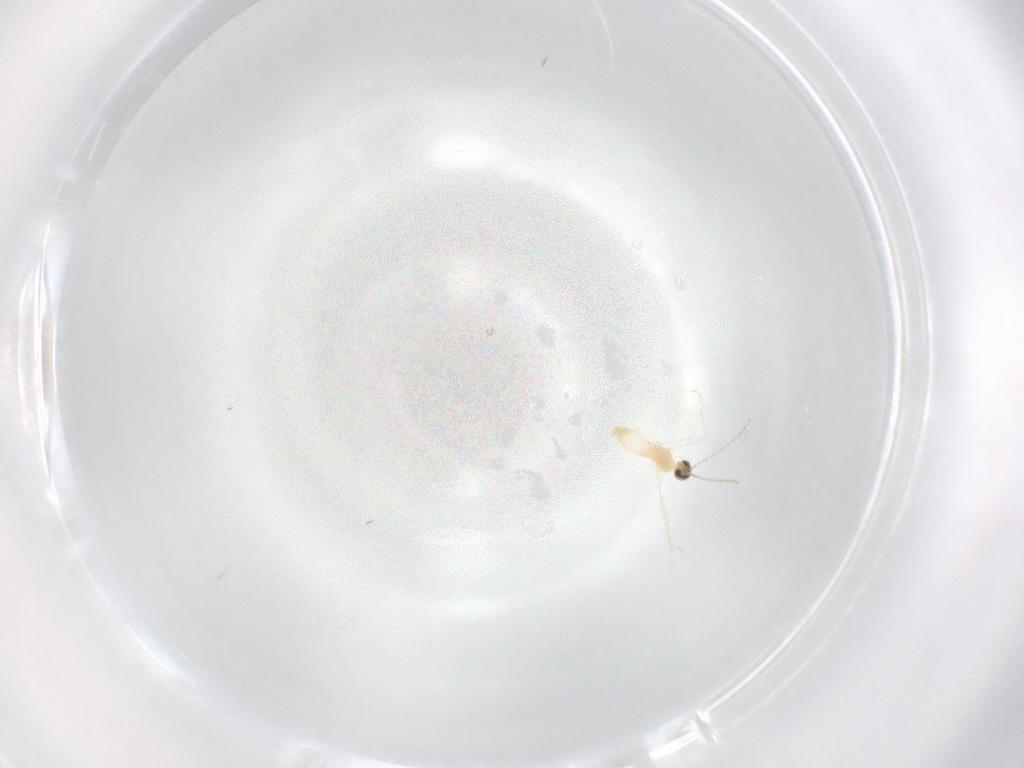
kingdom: Animalia
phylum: Arthropoda
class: Insecta
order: Diptera
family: Cecidomyiidae
